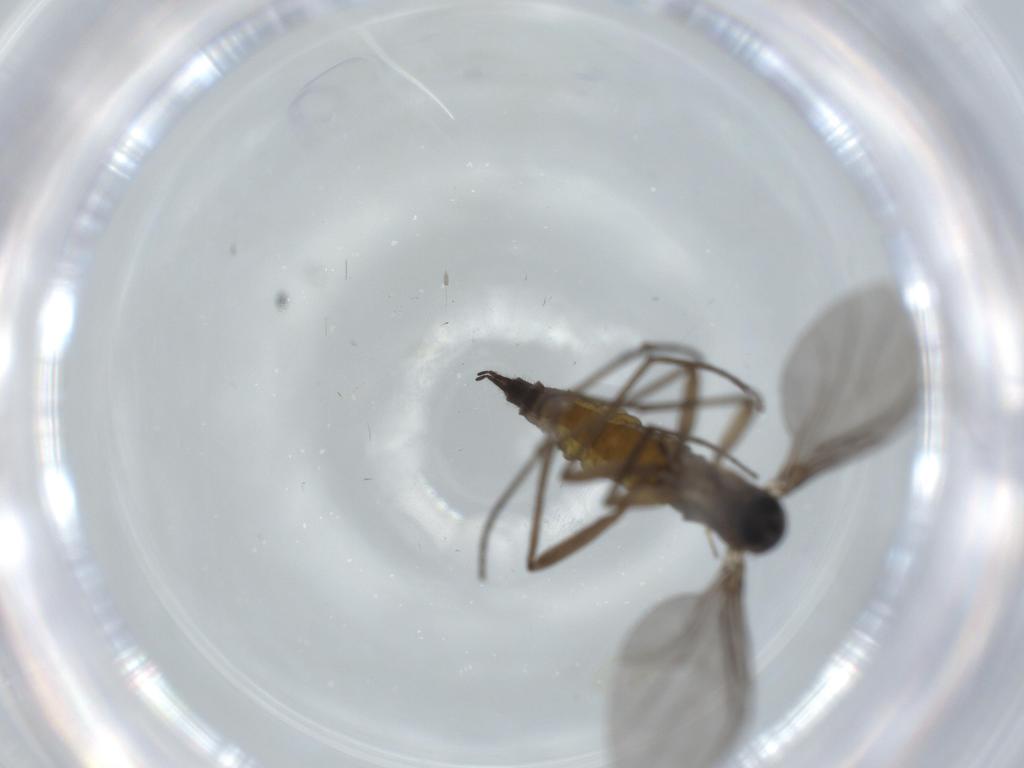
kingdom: Animalia
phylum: Arthropoda
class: Insecta
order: Diptera
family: Sciaridae
